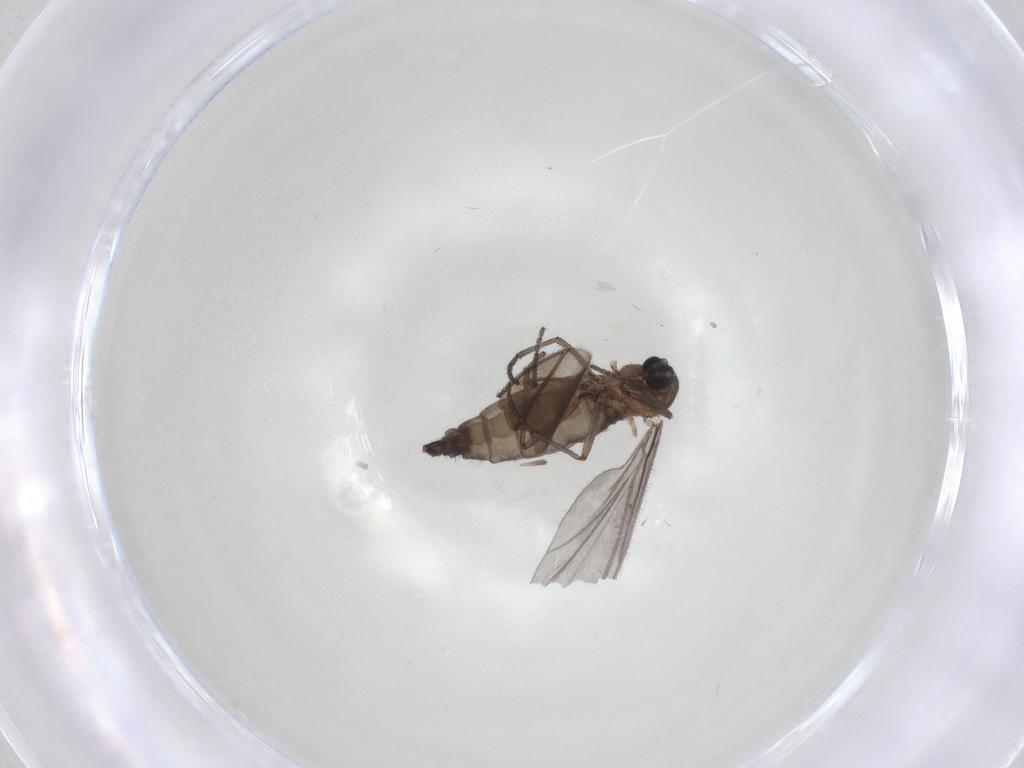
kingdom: Animalia
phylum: Arthropoda
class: Insecta
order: Diptera
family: Sciaridae
